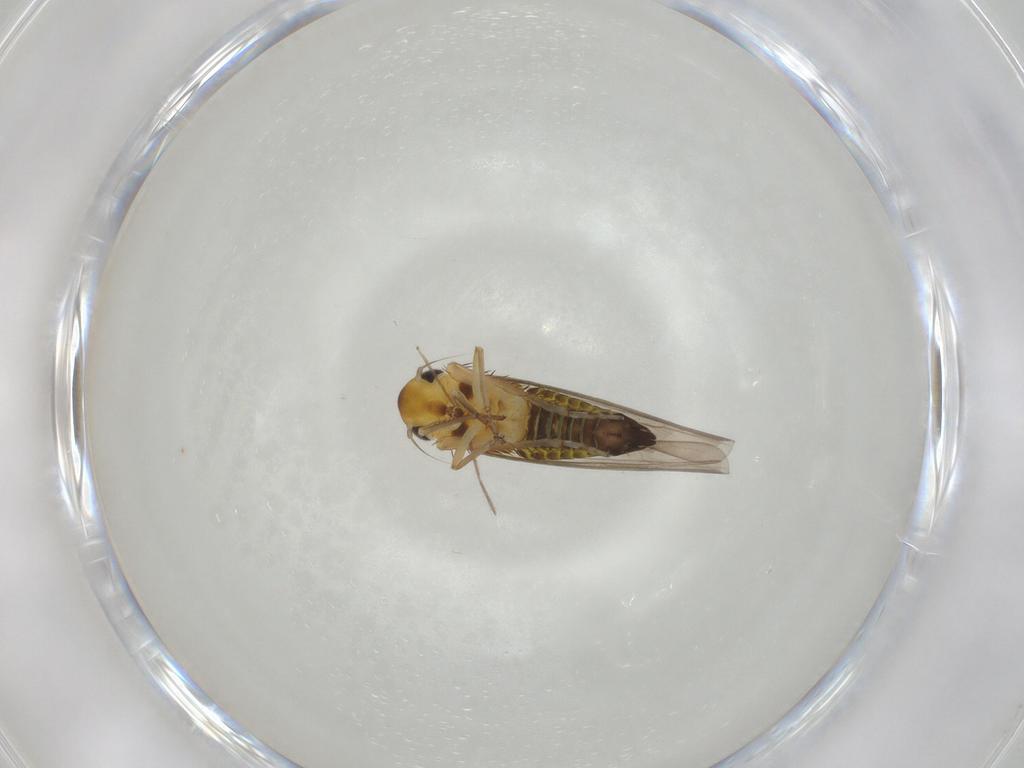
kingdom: Animalia
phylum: Arthropoda
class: Insecta
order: Hemiptera
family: Cicadellidae
